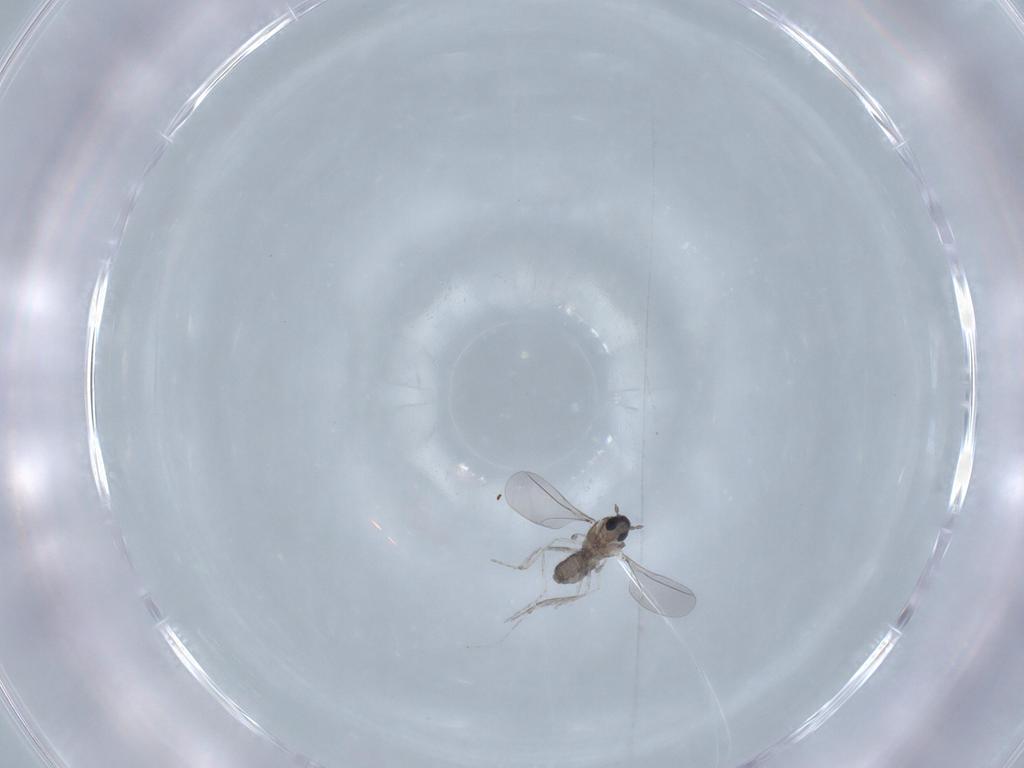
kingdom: Animalia
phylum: Arthropoda
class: Insecta
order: Diptera
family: Cecidomyiidae
